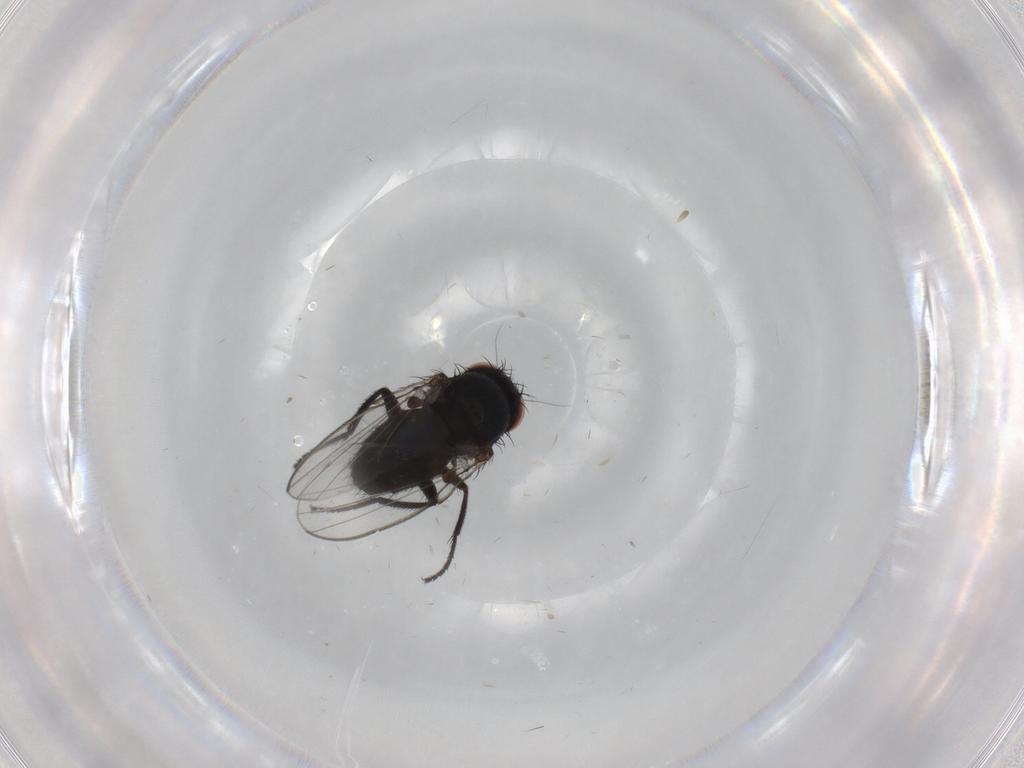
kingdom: Animalia
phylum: Arthropoda
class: Insecta
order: Diptera
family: Milichiidae
